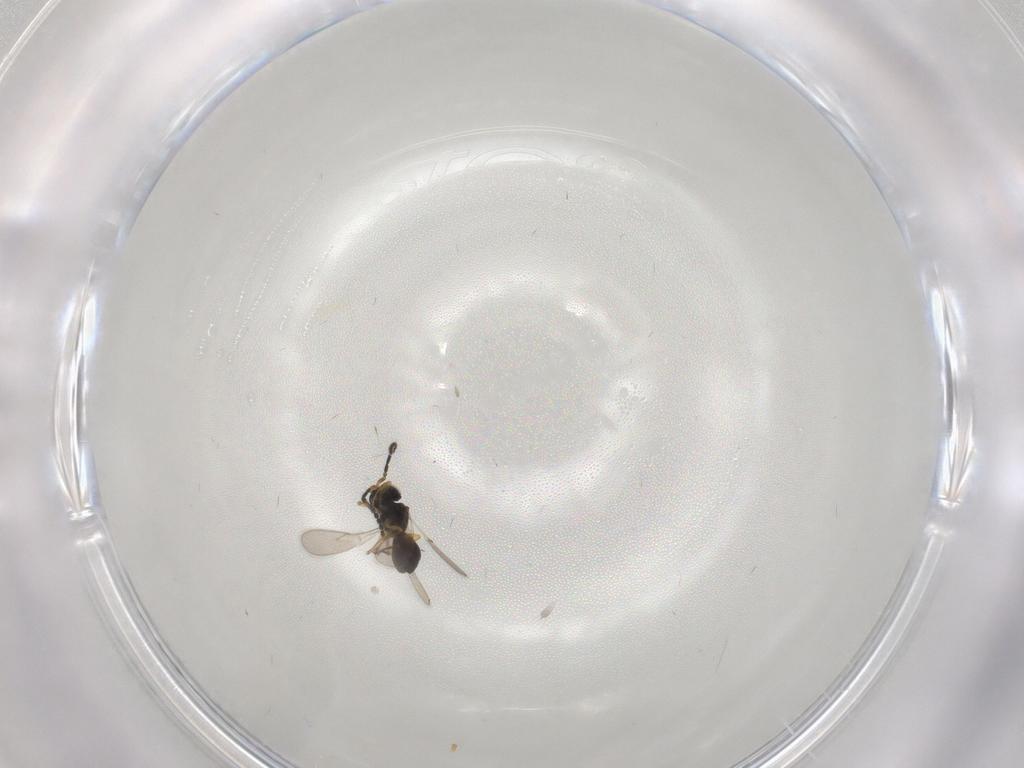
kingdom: Animalia
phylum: Arthropoda
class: Insecta
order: Hymenoptera
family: Scelionidae
